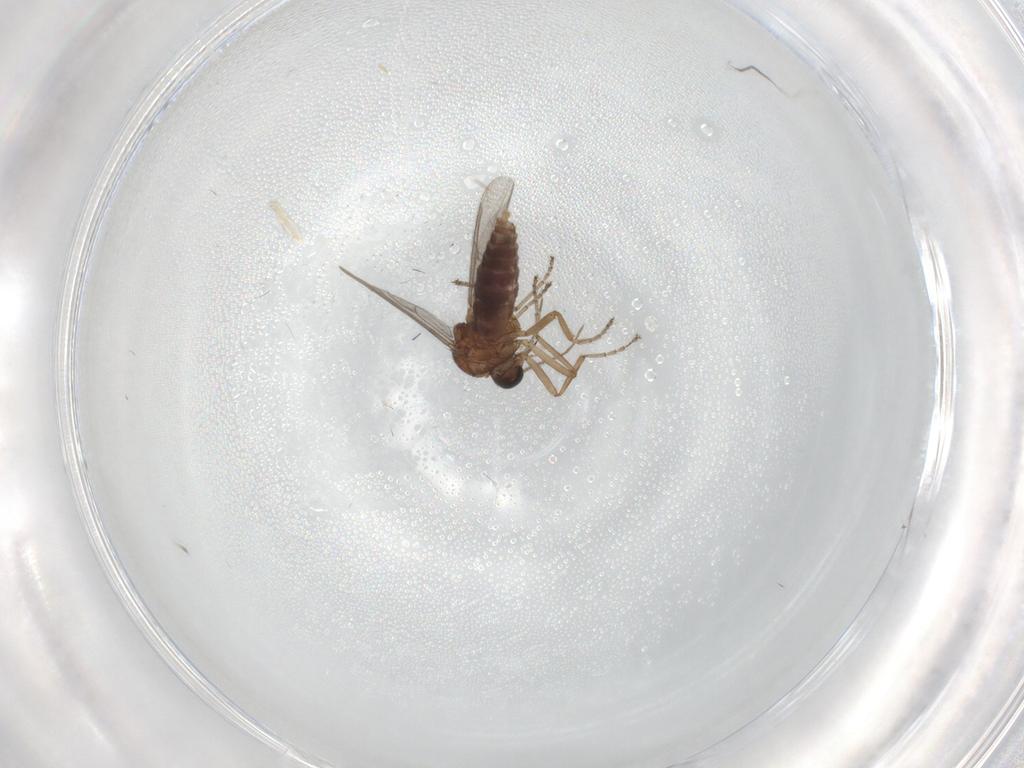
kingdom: Animalia
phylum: Arthropoda
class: Insecta
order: Diptera
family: Ceratopogonidae
